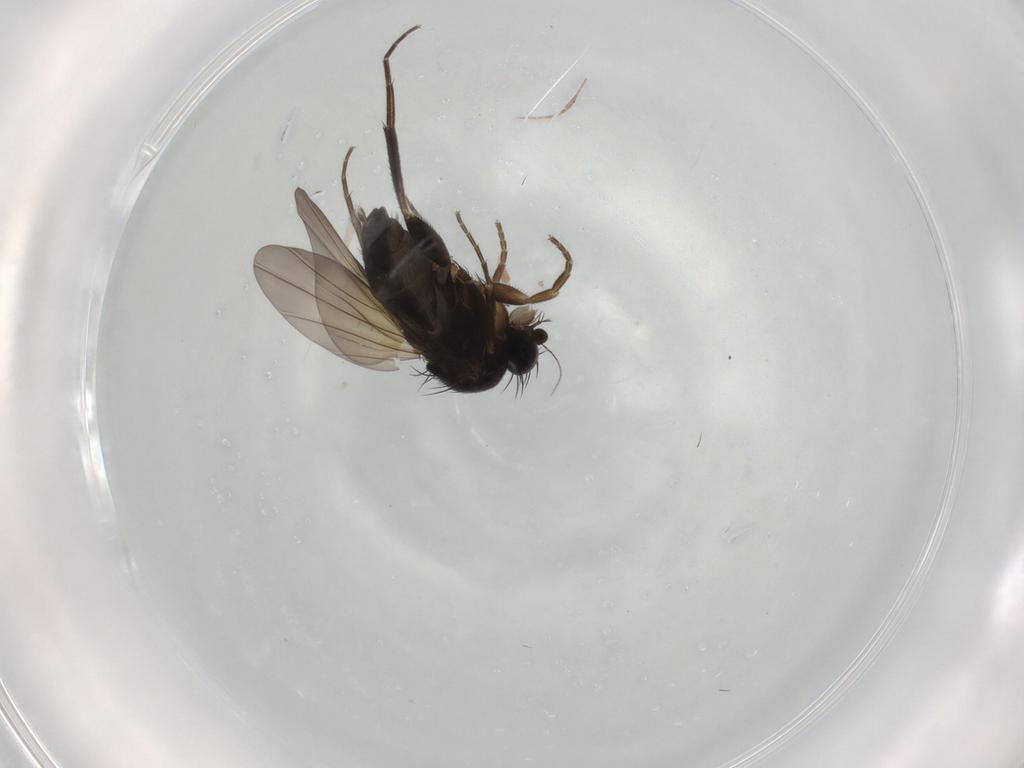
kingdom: Animalia
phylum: Arthropoda
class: Insecta
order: Diptera
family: Phoridae
